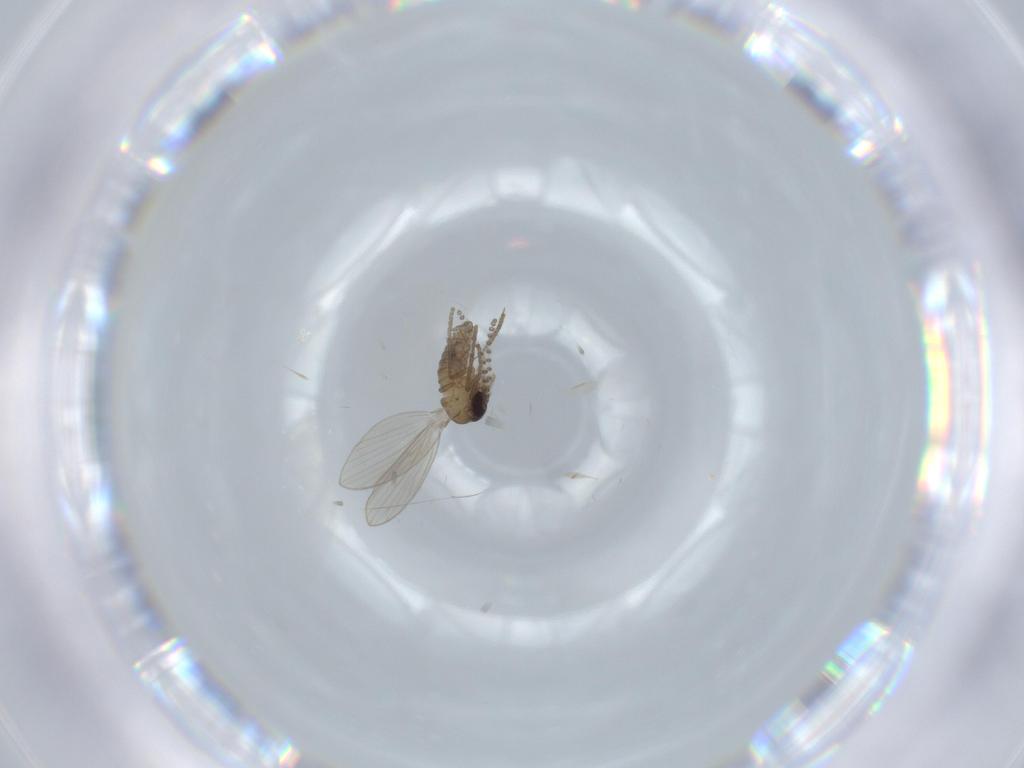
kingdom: Animalia
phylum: Arthropoda
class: Insecta
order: Diptera
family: Psychodidae
